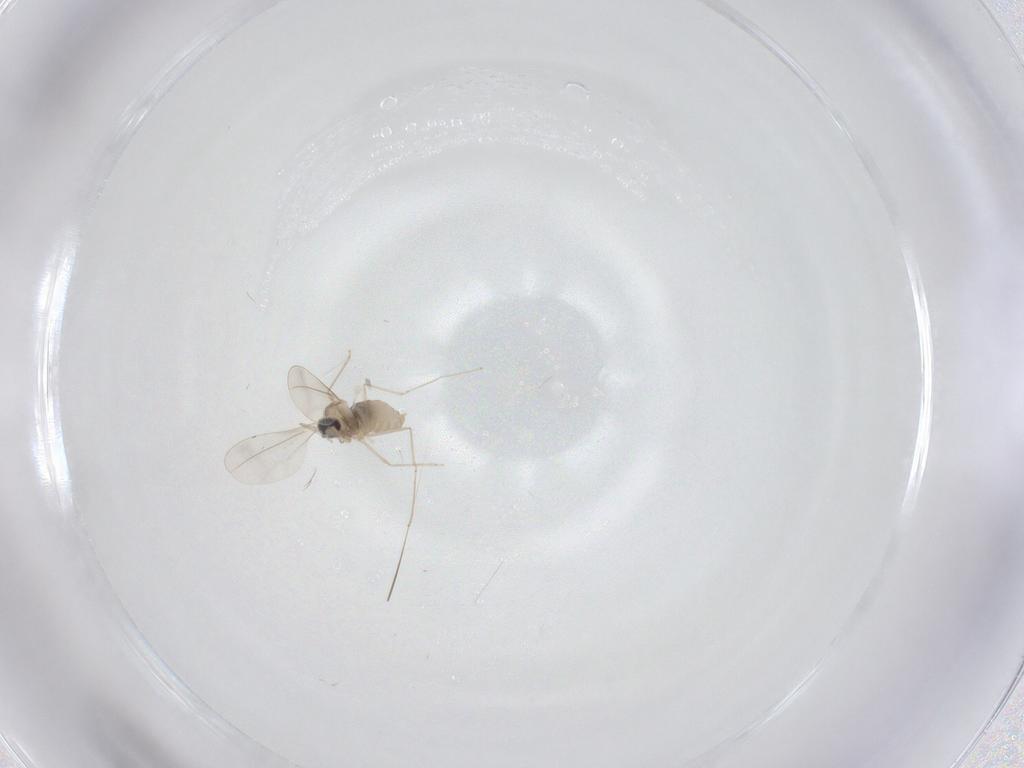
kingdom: Animalia
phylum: Arthropoda
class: Insecta
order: Diptera
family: Cecidomyiidae
